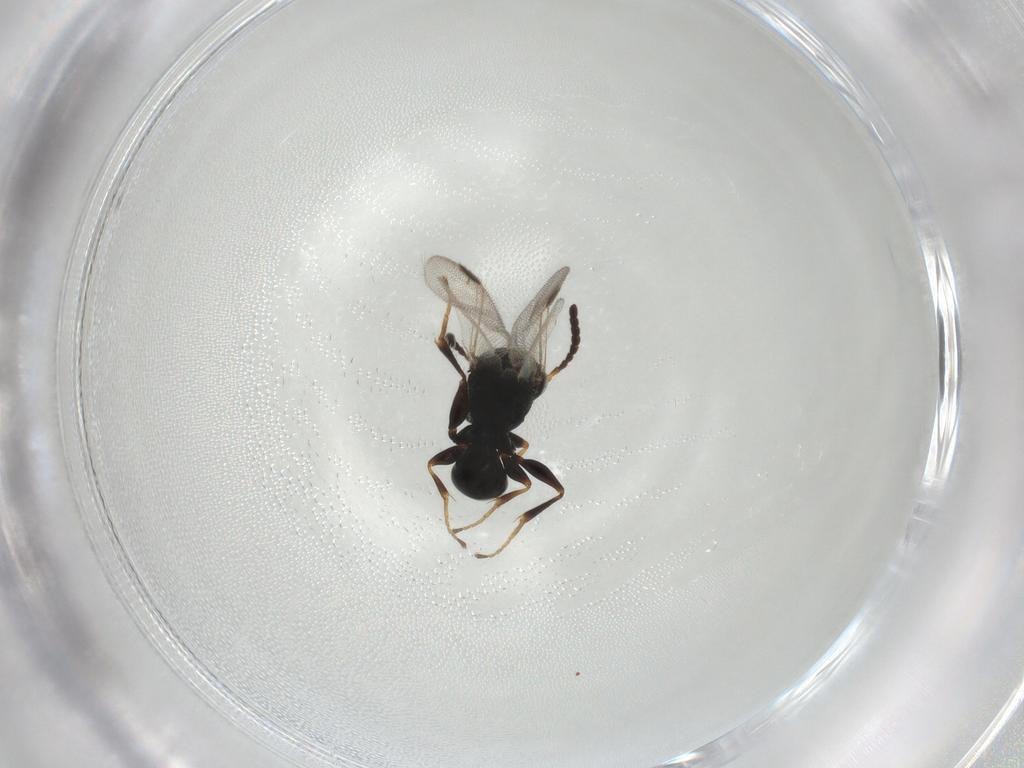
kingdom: Animalia
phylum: Arthropoda
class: Insecta
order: Hymenoptera
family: Dryinidae
